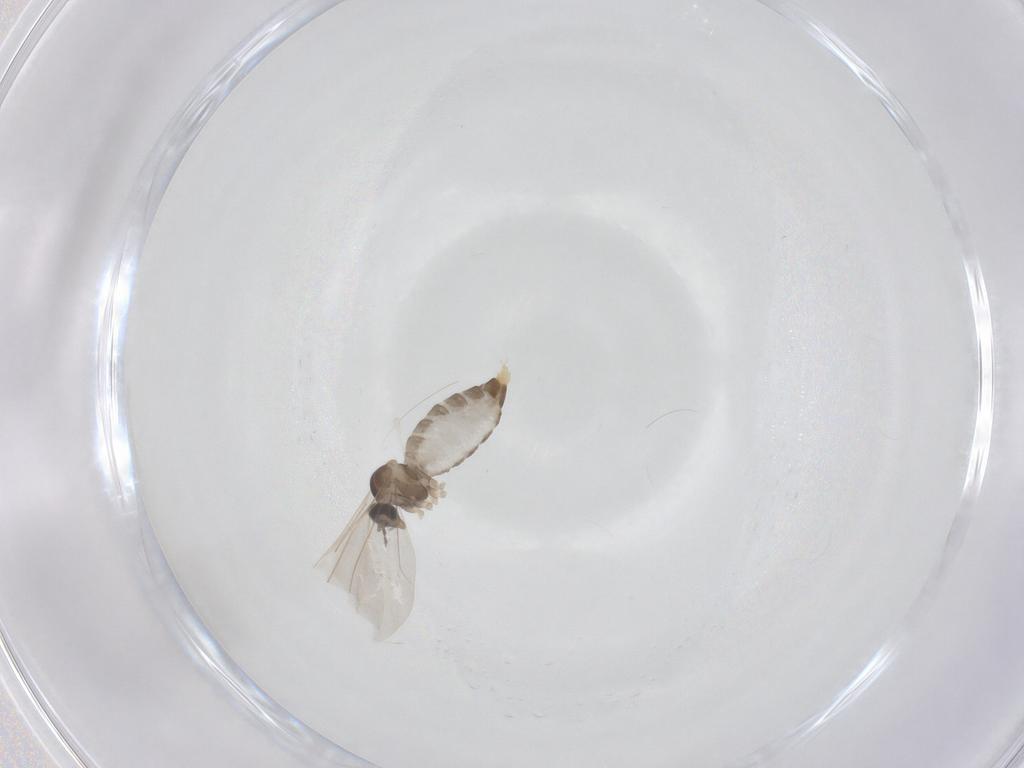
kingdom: Animalia
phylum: Arthropoda
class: Insecta
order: Diptera
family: Cecidomyiidae
